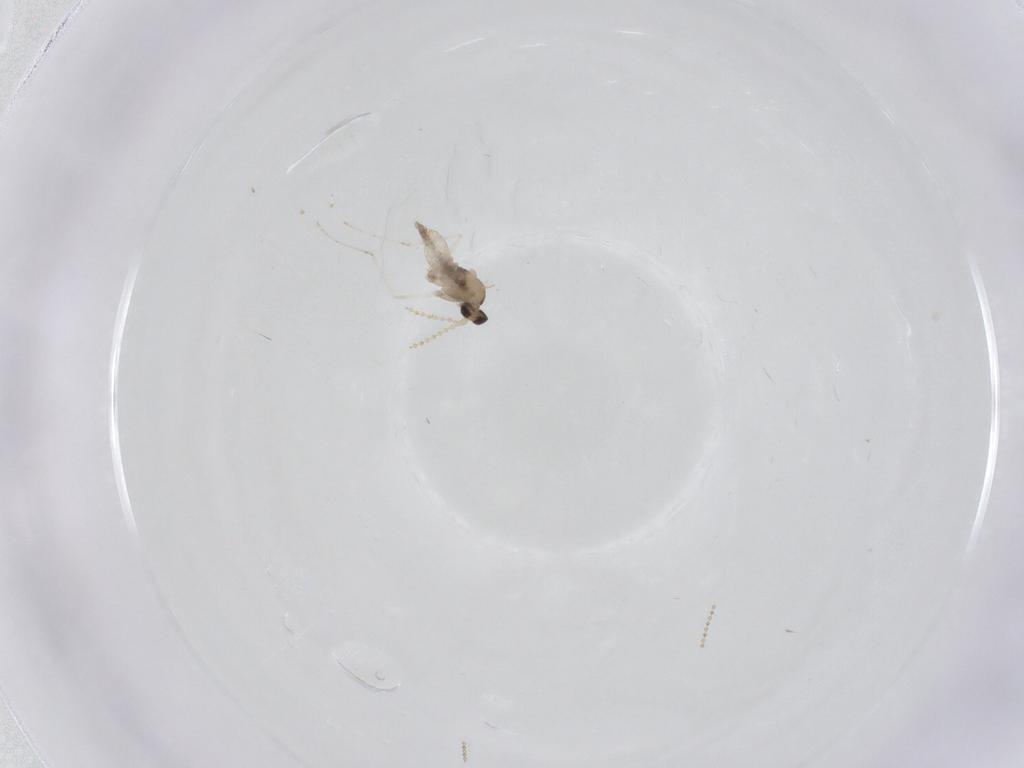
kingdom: Animalia
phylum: Arthropoda
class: Insecta
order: Diptera
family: Cecidomyiidae
